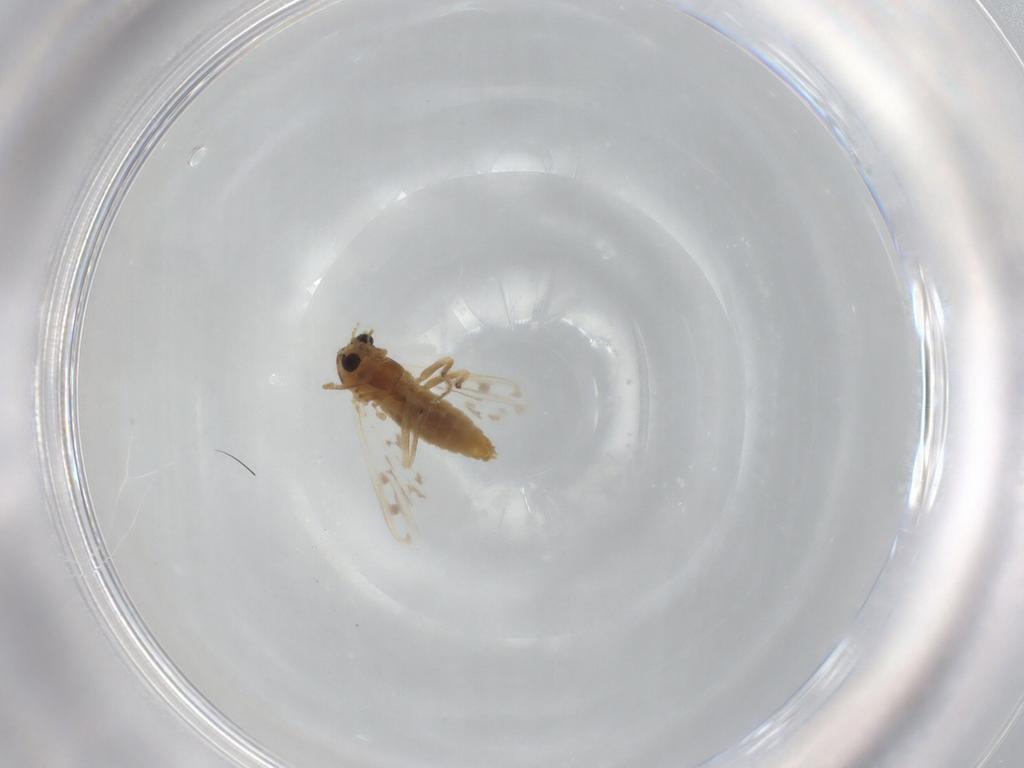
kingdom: Animalia
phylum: Arthropoda
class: Insecta
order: Diptera
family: Chironomidae
